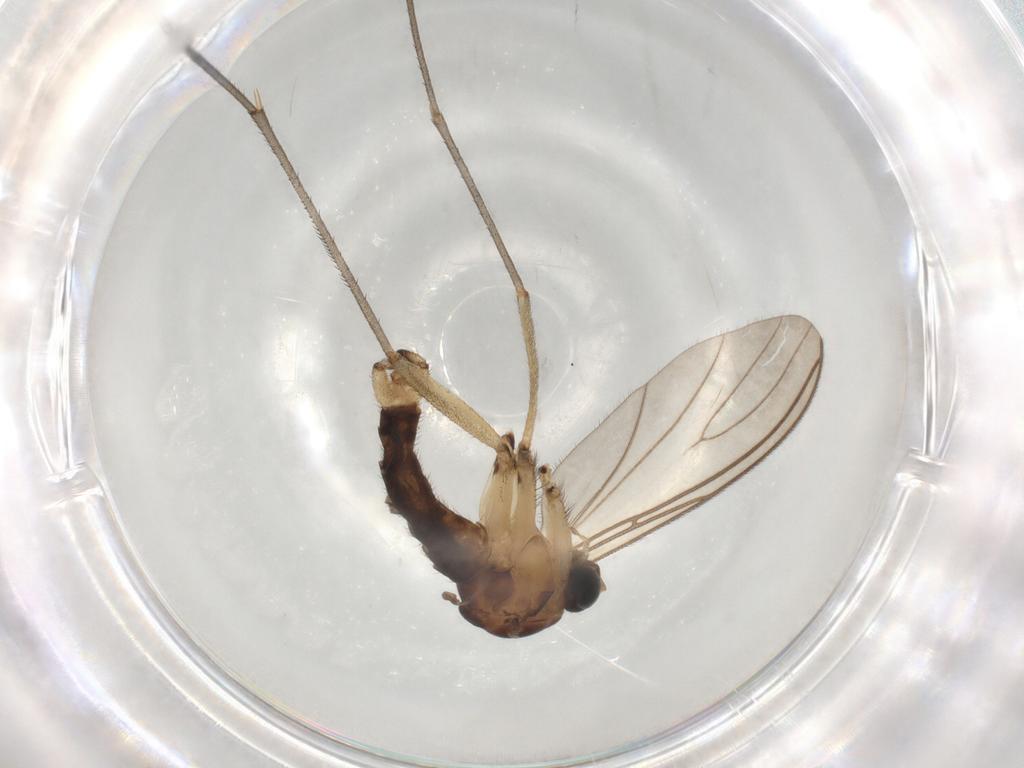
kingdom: Animalia
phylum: Arthropoda
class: Insecta
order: Diptera
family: Sciaridae
